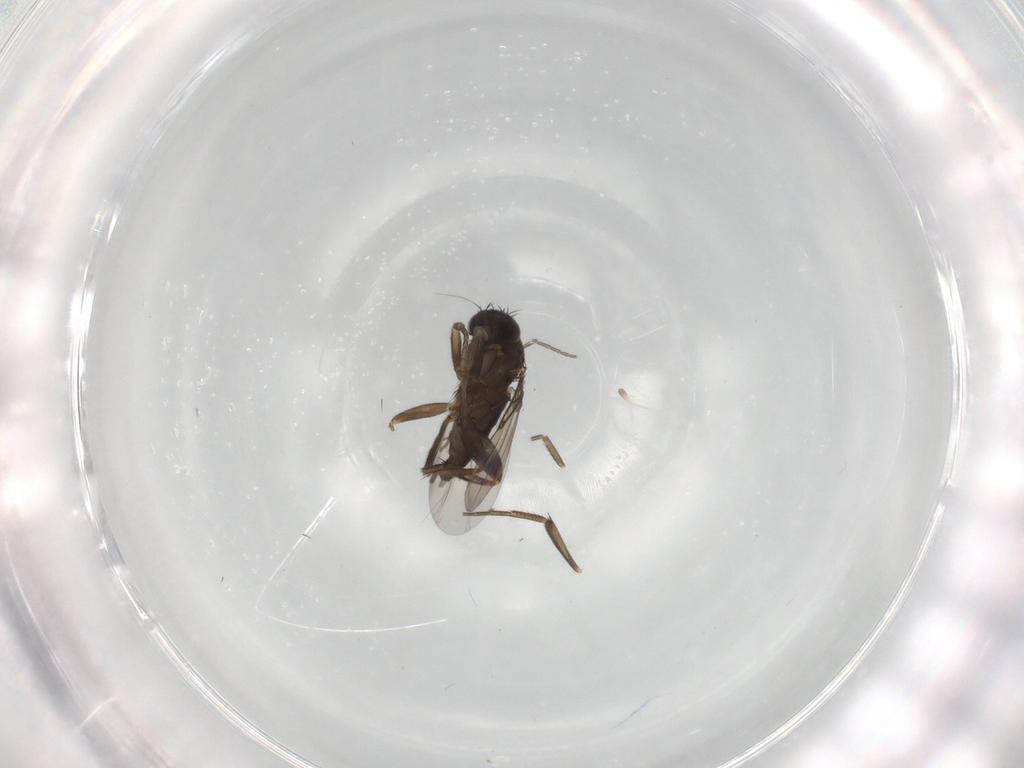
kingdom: Animalia
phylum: Arthropoda
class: Insecta
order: Diptera
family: Phoridae
